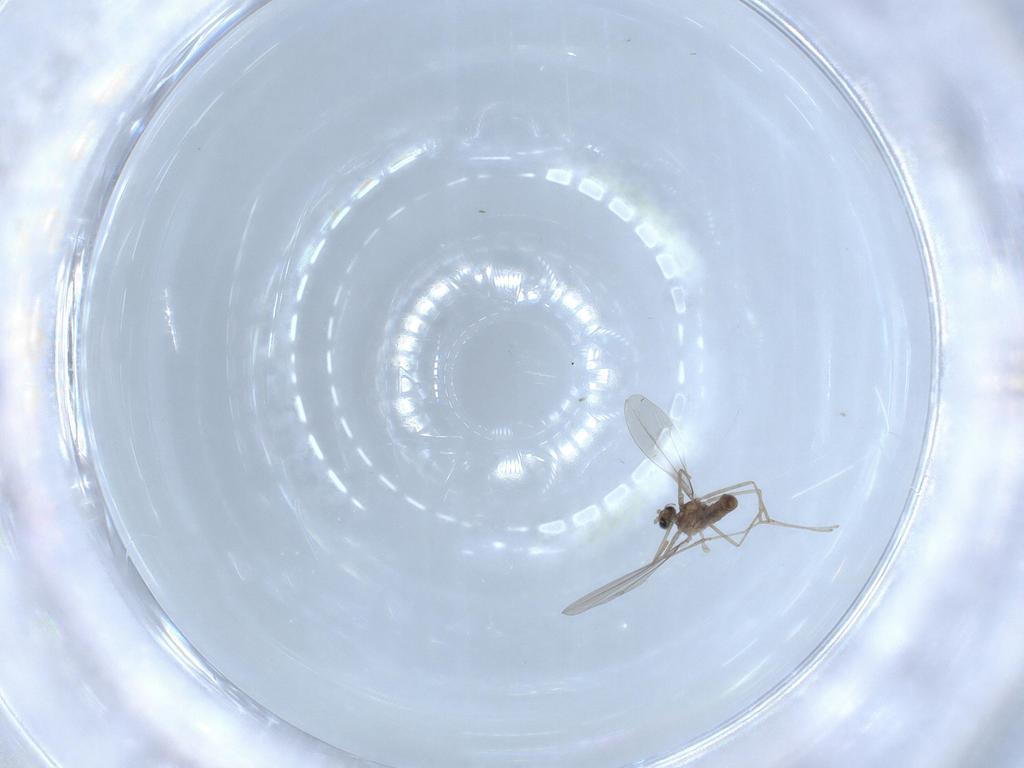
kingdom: Animalia
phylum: Arthropoda
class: Insecta
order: Diptera
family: Cecidomyiidae
